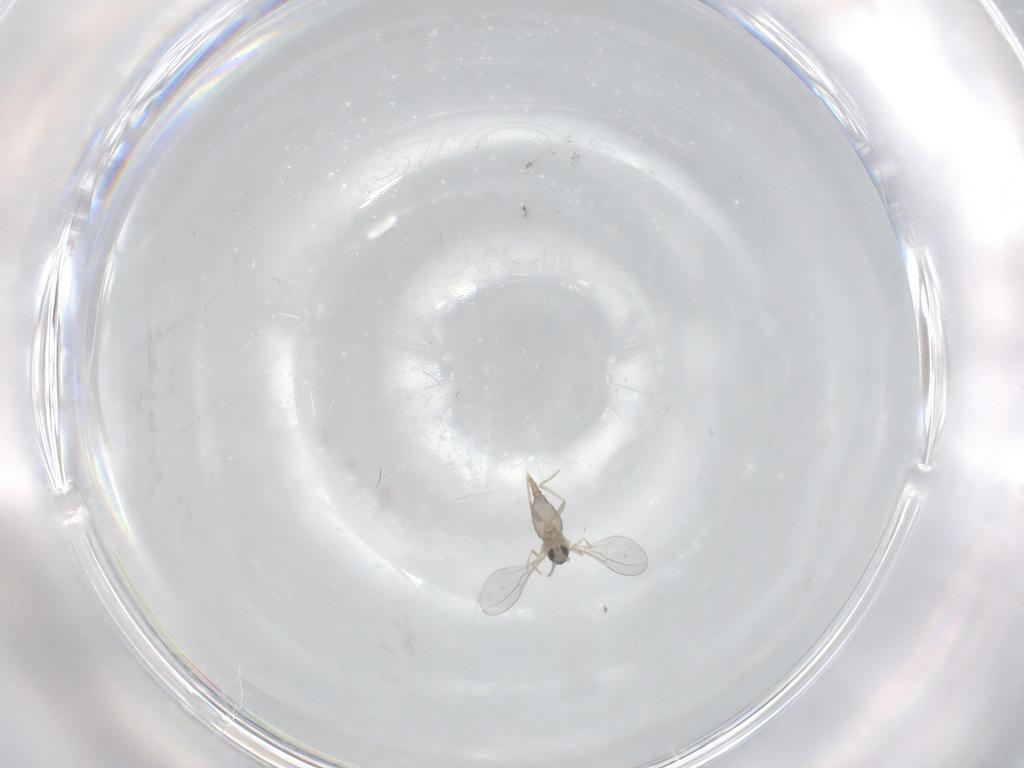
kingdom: Animalia
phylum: Arthropoda
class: Insecta
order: Diptera
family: Cecidomyiidae
